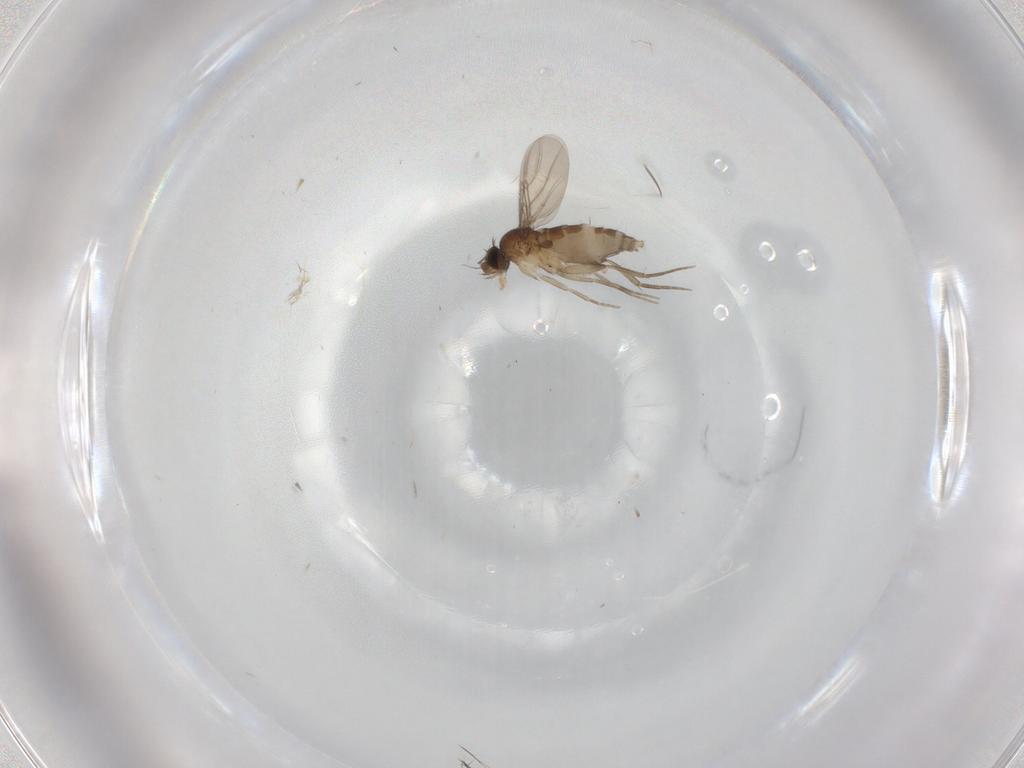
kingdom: Animalia
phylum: Arthropoda
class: Insecta
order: Diptera
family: Phoridae
